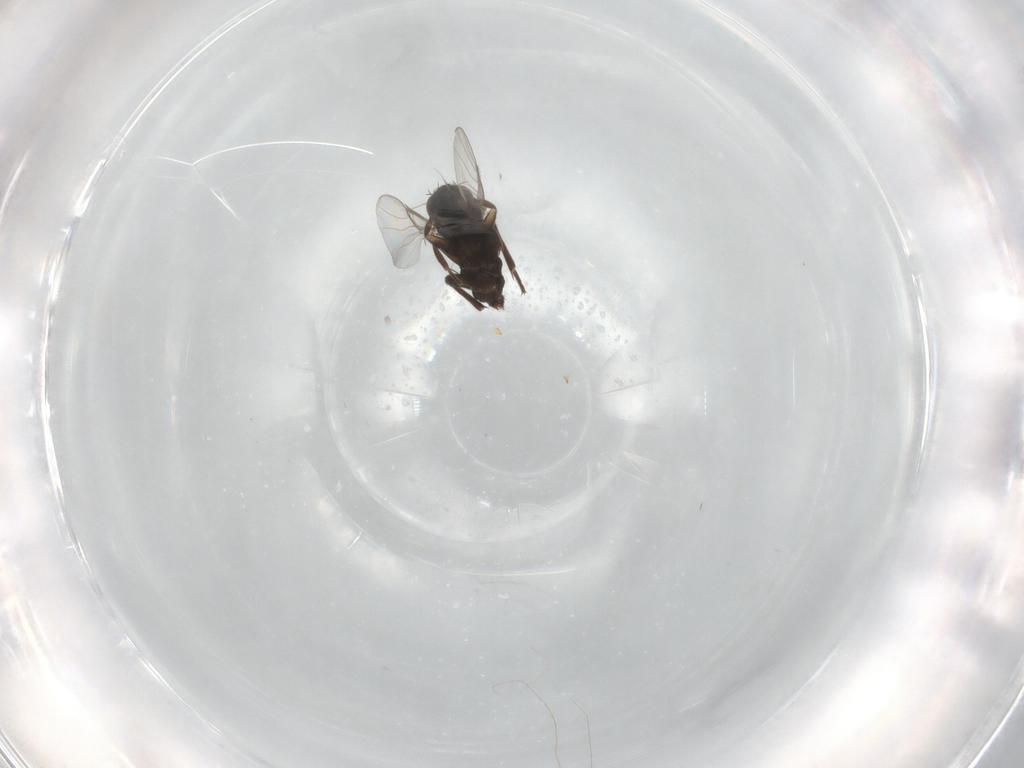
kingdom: Animalia
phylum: Arthropoda
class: Insecta
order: Diptera
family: Phoridae
